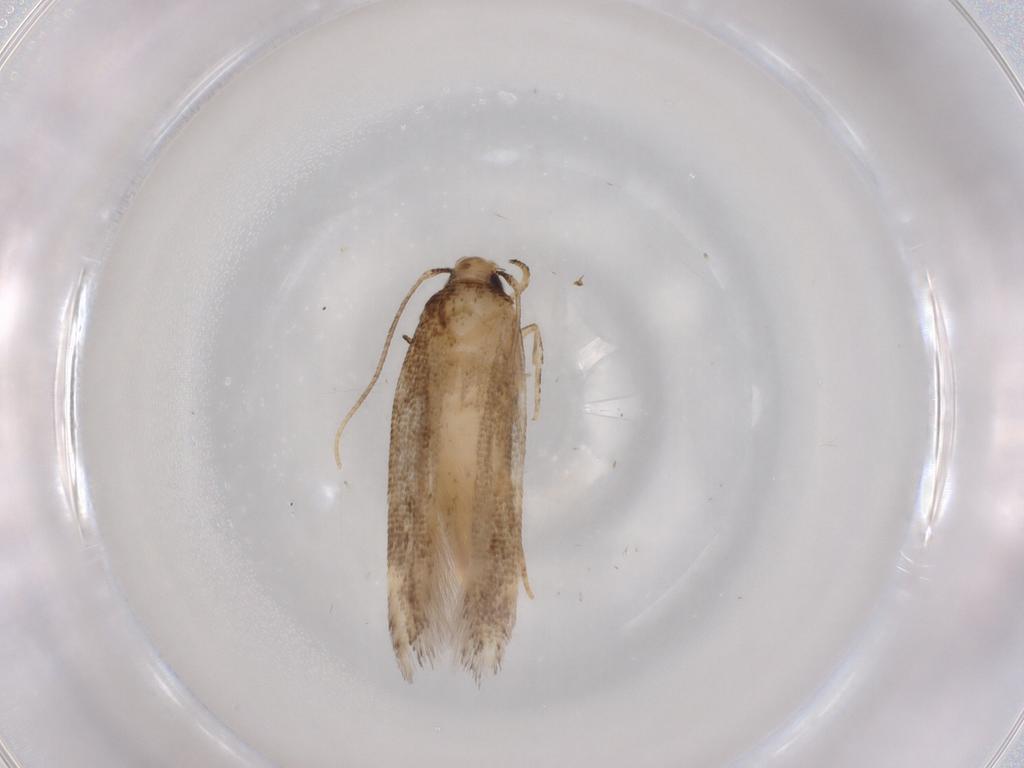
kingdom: Animalia
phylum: Arthropoda
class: Insecta
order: Lepidoptera
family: Cosmopterigidae
